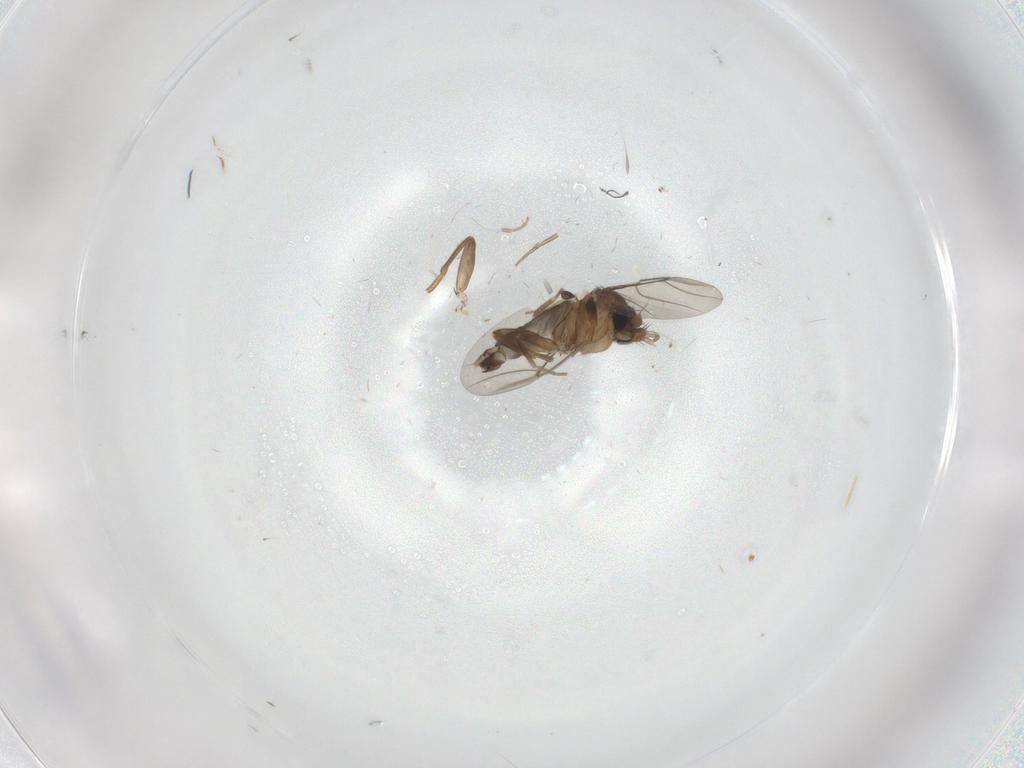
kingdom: Animalia
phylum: Arthropoda
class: Insecta
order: Diptera
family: Phoridae
